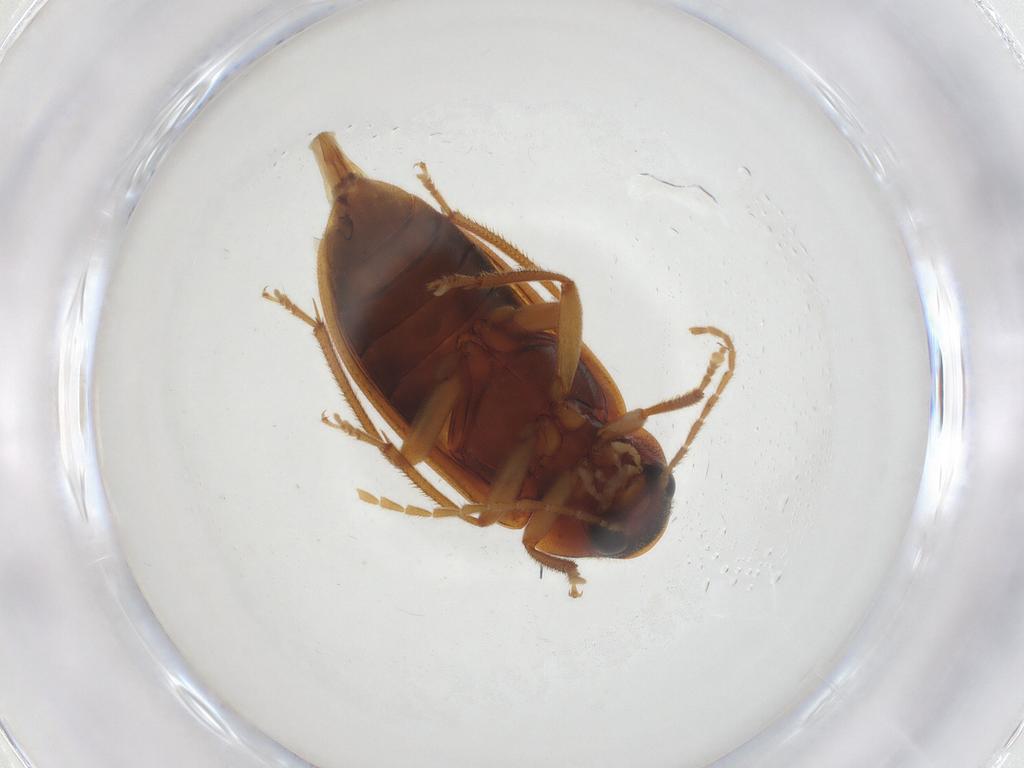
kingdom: Animalia
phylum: Arthropoda
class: Insecta
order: Coleoptera
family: Ptilodactylidae
